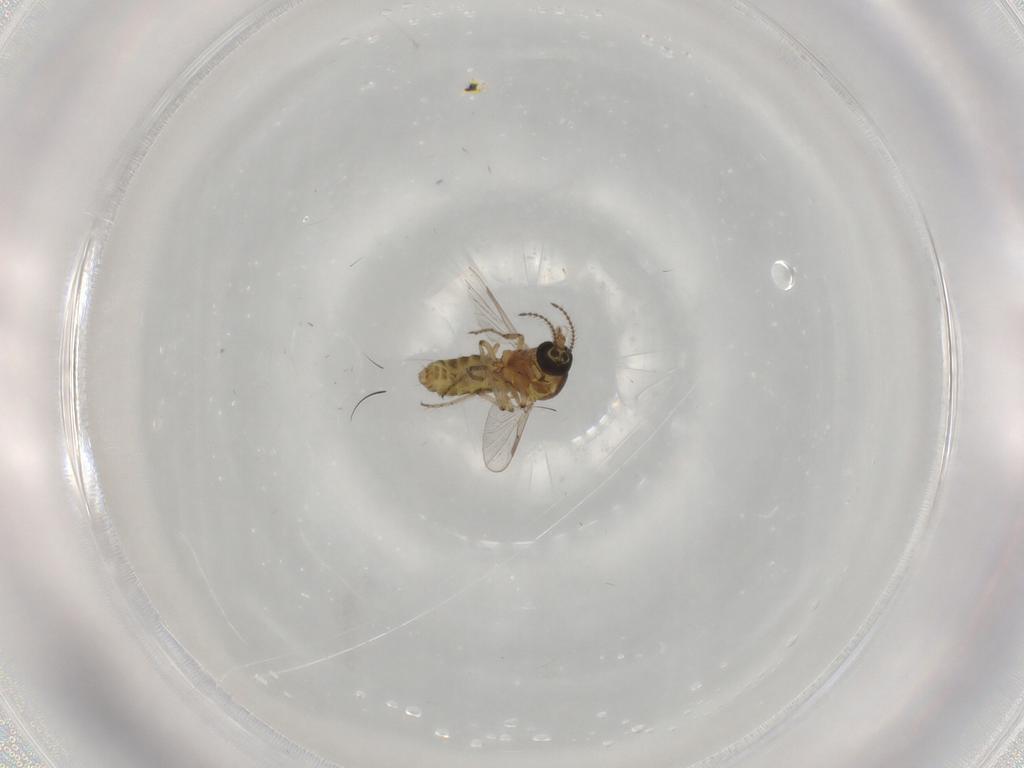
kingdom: Animalia
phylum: Arthropoda
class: Insecta
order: Diptera
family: Ceratopogonidae
